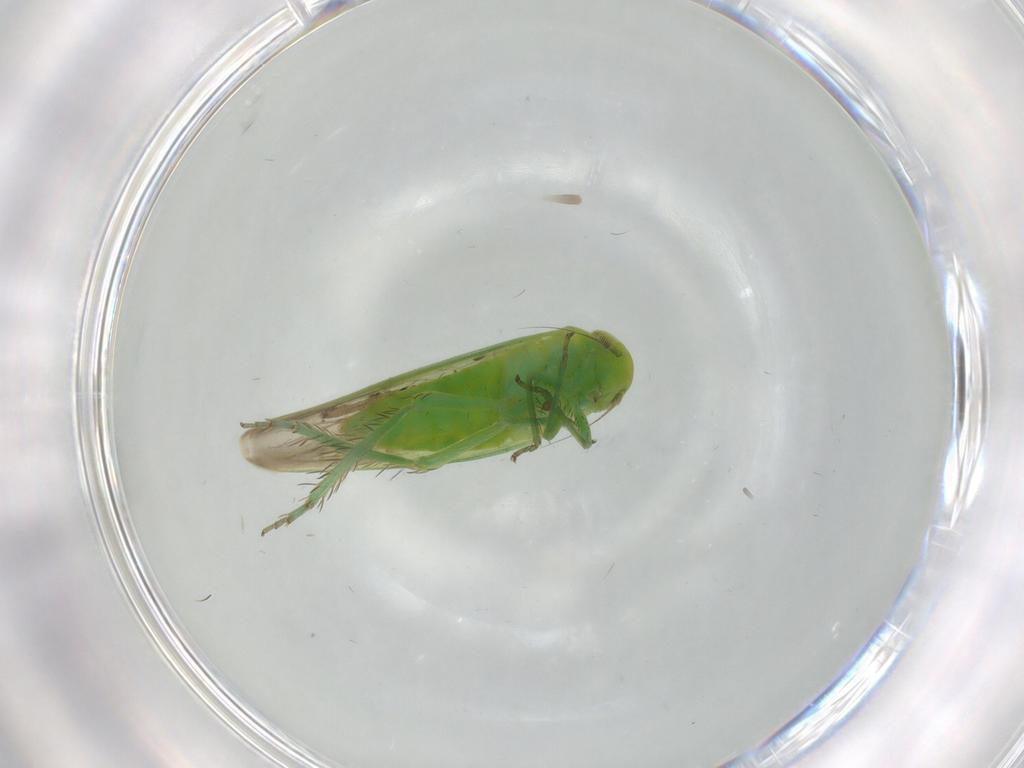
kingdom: Animalia
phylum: Arthropoda
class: Insecta
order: Hemiptera
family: Cicadellidae
